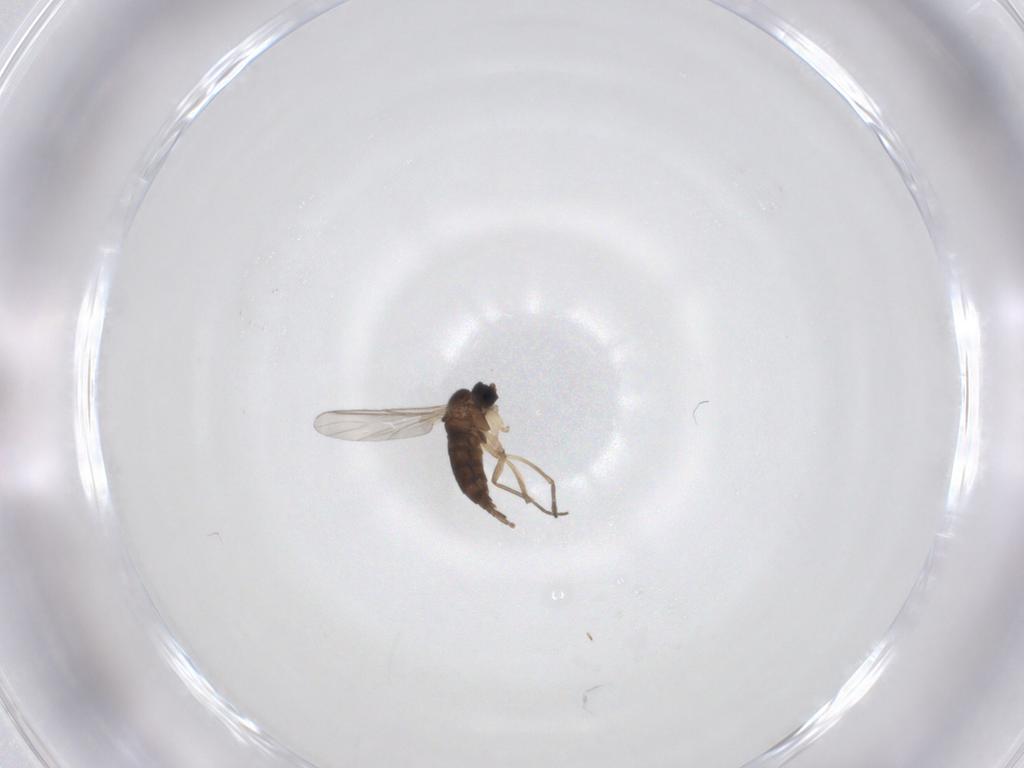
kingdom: Animalia
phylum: Arthropoda
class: Insecta
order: Diptera
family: Sciaridae
